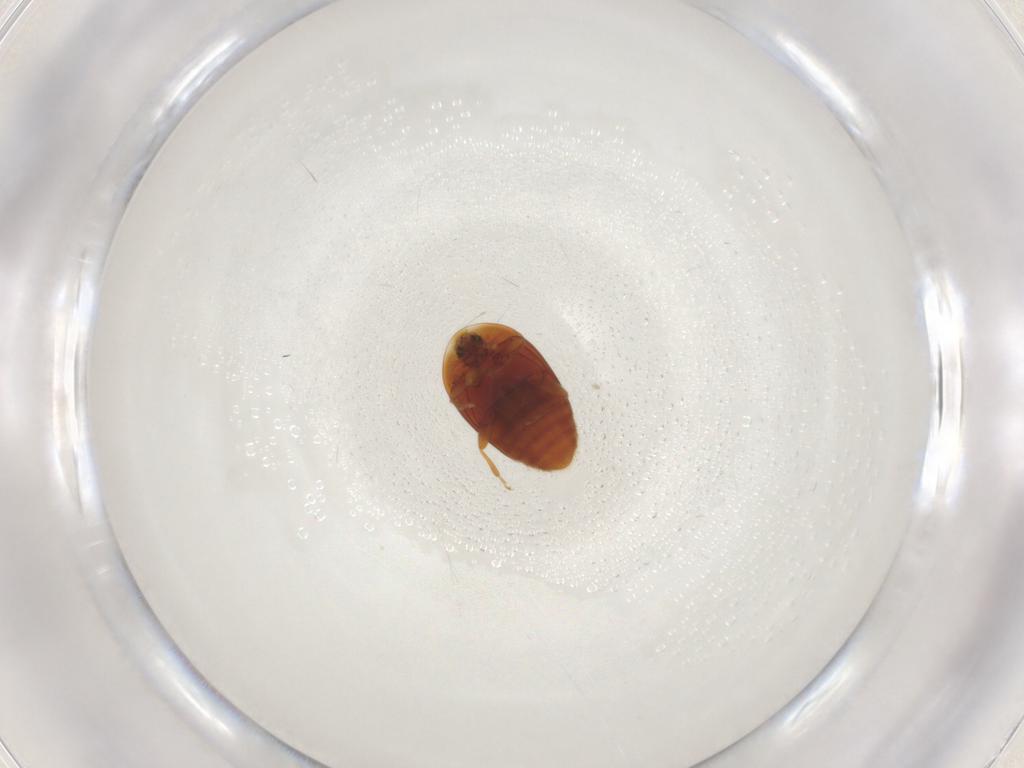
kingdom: Animalia
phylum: Arthropoda
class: Insecta
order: Coleoptera
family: Corylophidae
